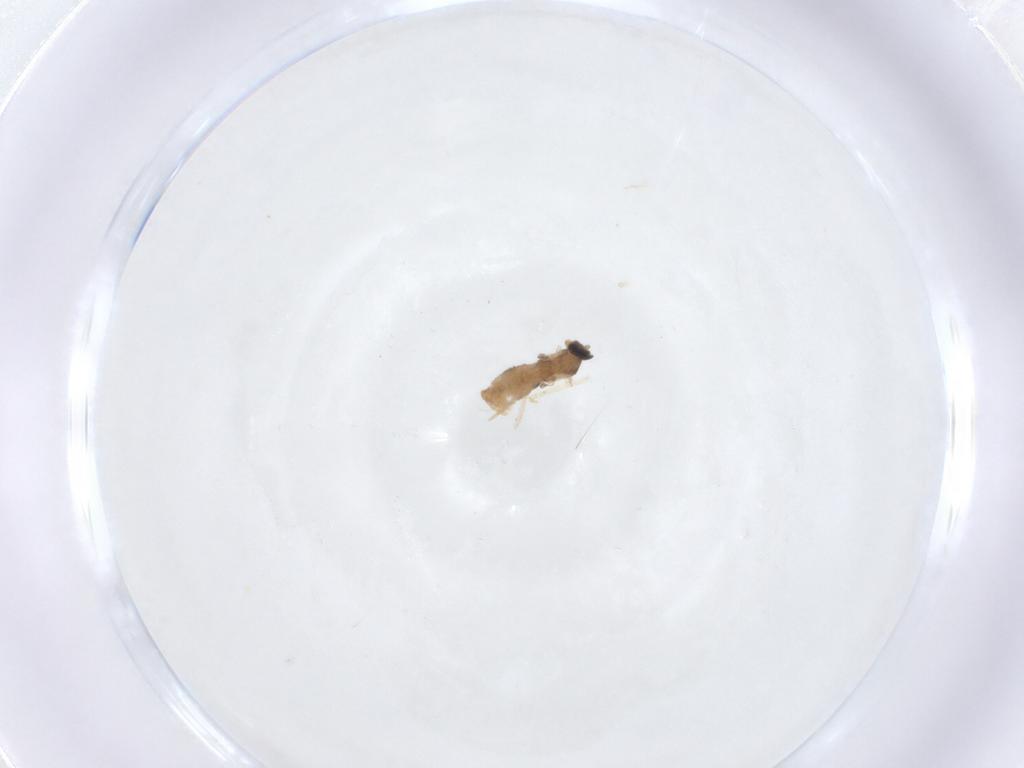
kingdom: Animalia
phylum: Arthropoda
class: Insecta
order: Diptera
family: Cecidomyiidae
